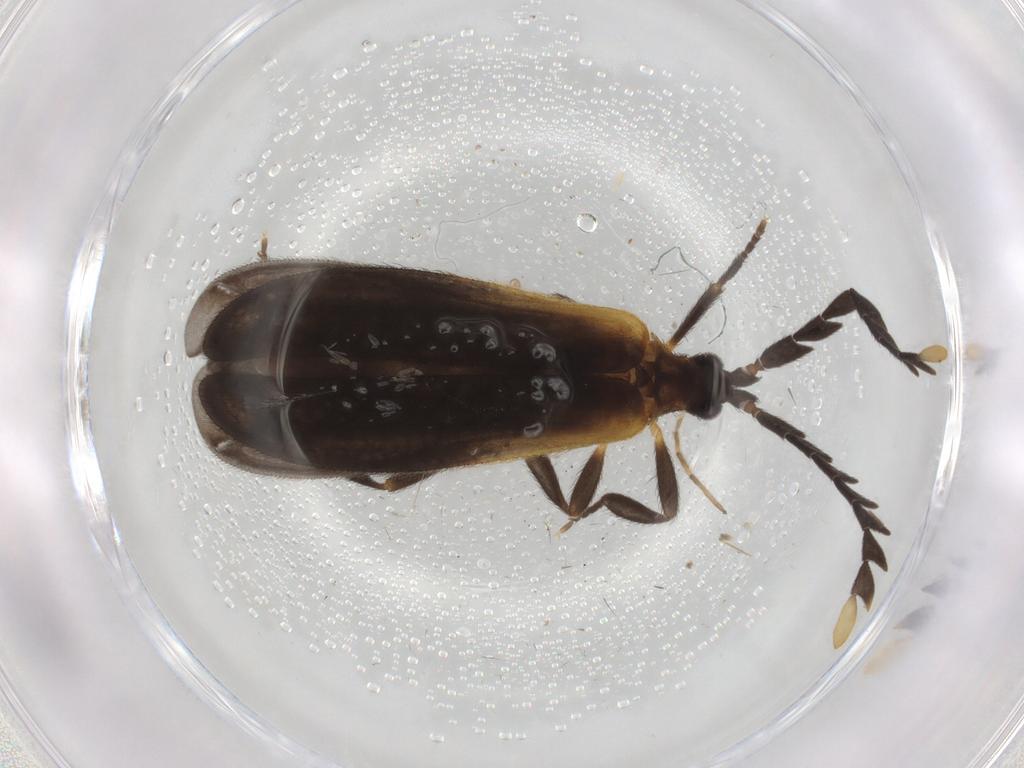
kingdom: Animalia
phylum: Arthropoda
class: Insecta
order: Coleoptera
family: Lycidae
